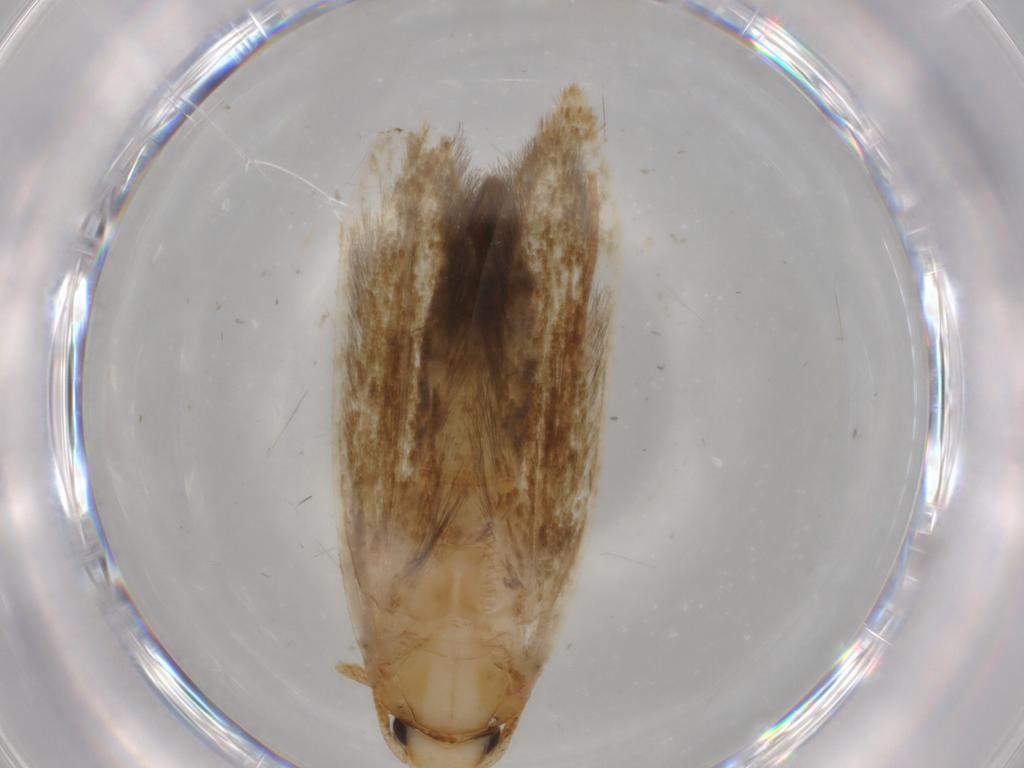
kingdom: Animalia
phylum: Arthropoda
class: Insecta
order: Lepidoptera
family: Tineidae
